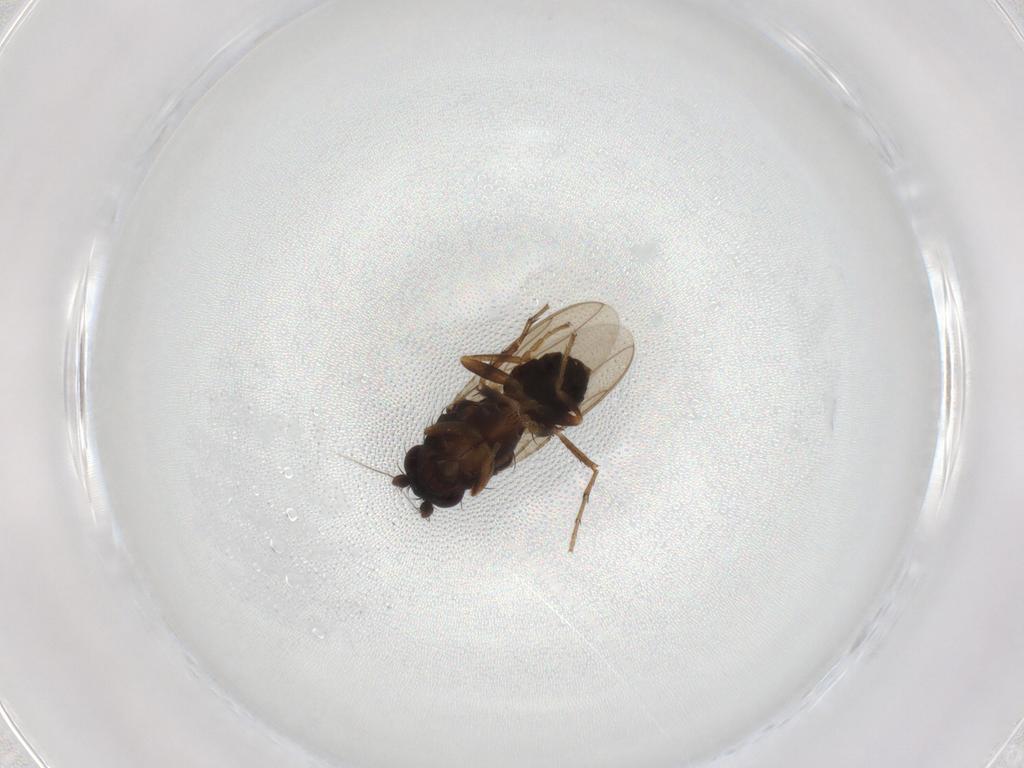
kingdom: Animalia
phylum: Arthropoda
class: Insecta
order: Diptera
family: Sphaeroceridae
